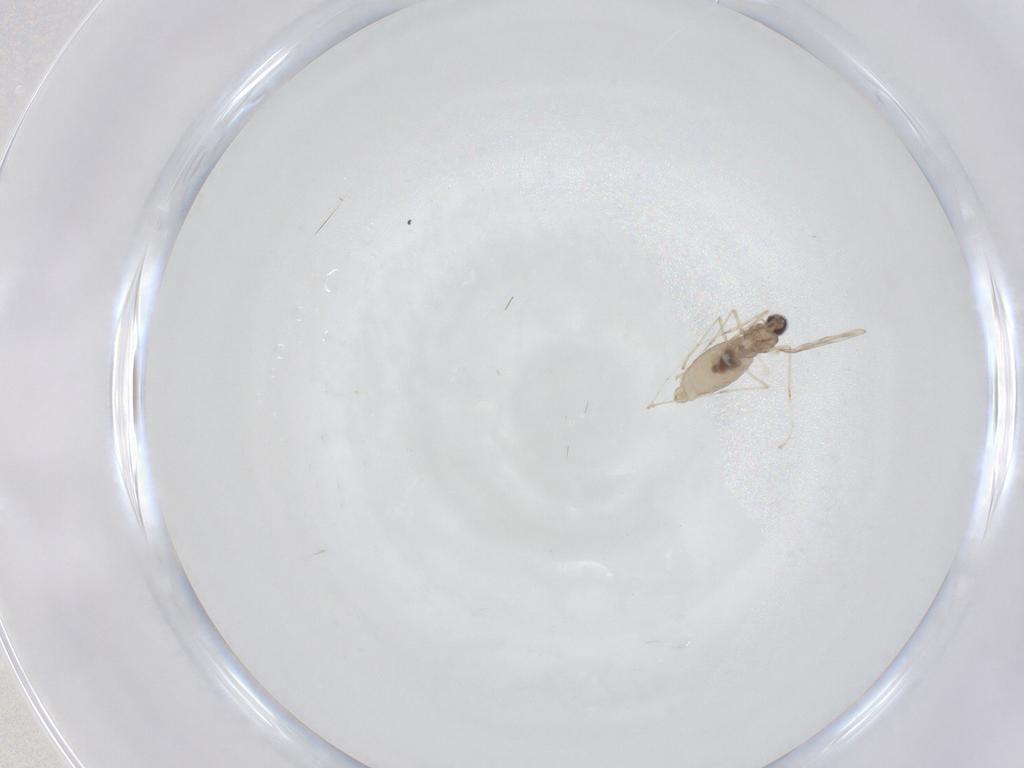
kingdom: Animalia
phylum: Arthropoda
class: Insecta
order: Diptera
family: Cecidomyiidae
